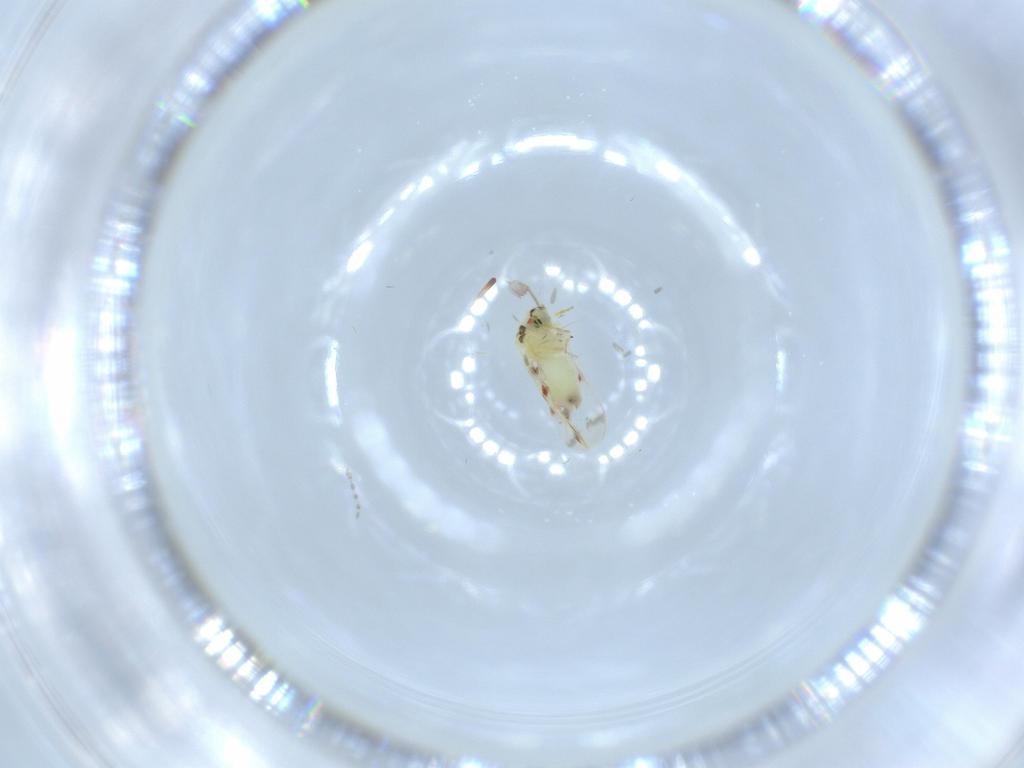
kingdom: Animalia
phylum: Arthropoda
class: Insecta
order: Hemiptera
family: Aleyrodidae
